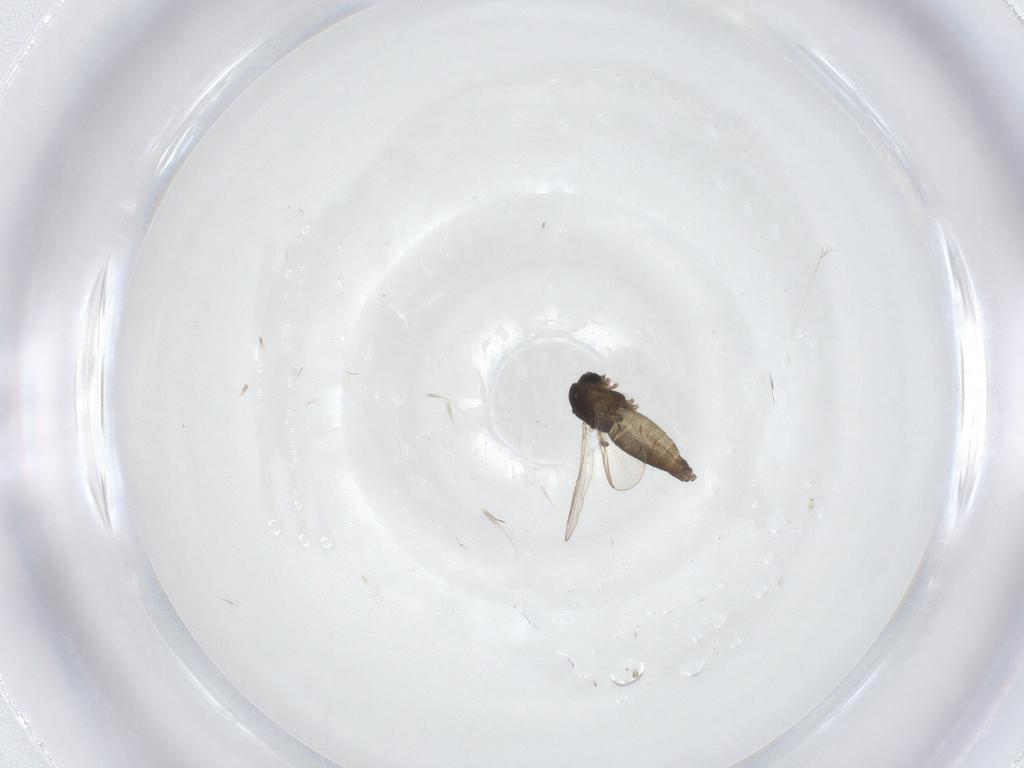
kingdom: Animalia
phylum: Arthropoda
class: Insecta
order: Diptera
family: Chironomidae
